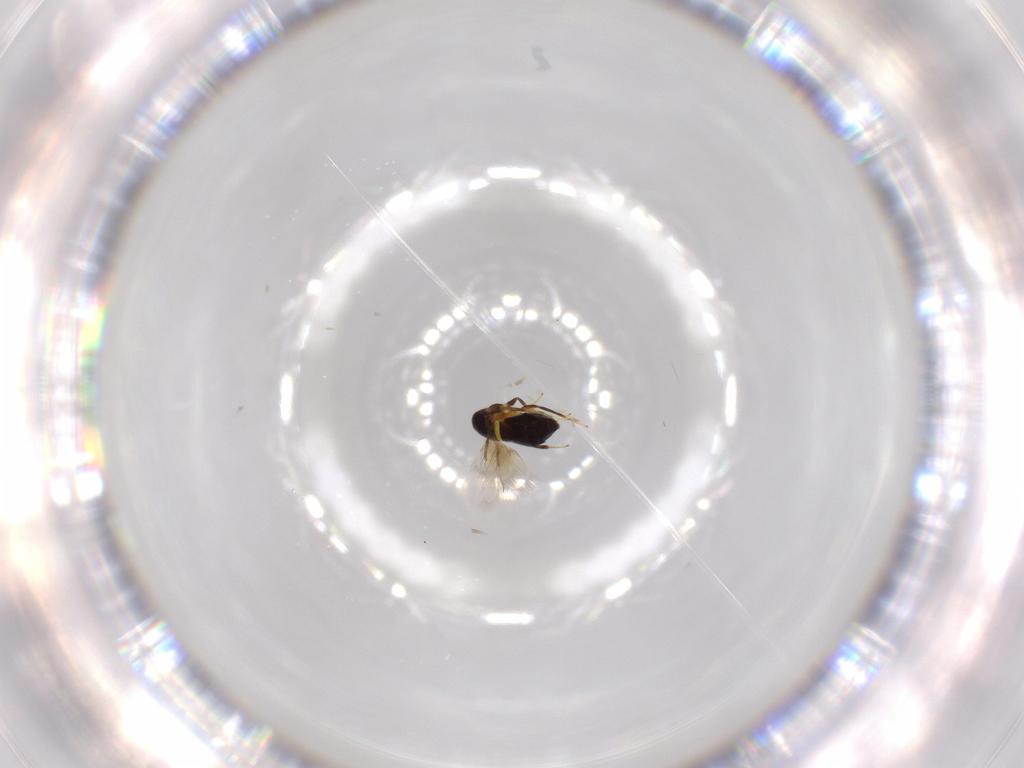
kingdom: Animalia
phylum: Arthropoda
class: Insecta
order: Hymenoptera
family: Signiphoridae
